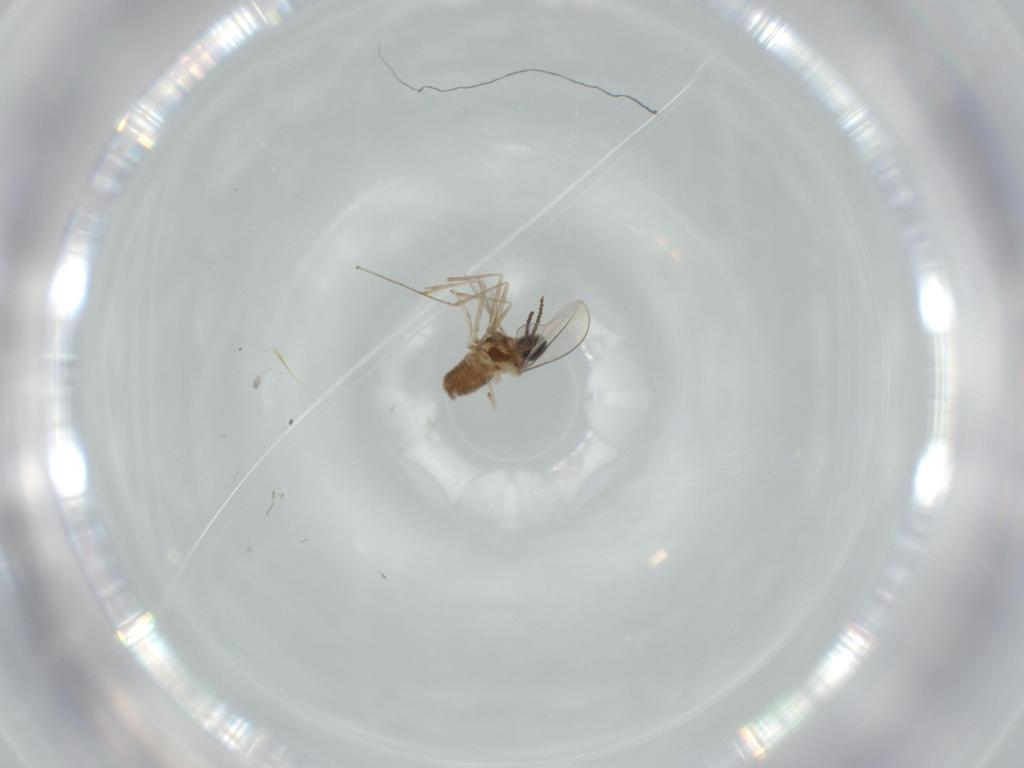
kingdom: Animalia
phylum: Arthropoda
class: Insecta
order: Diptera
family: Cecidomyiidae
